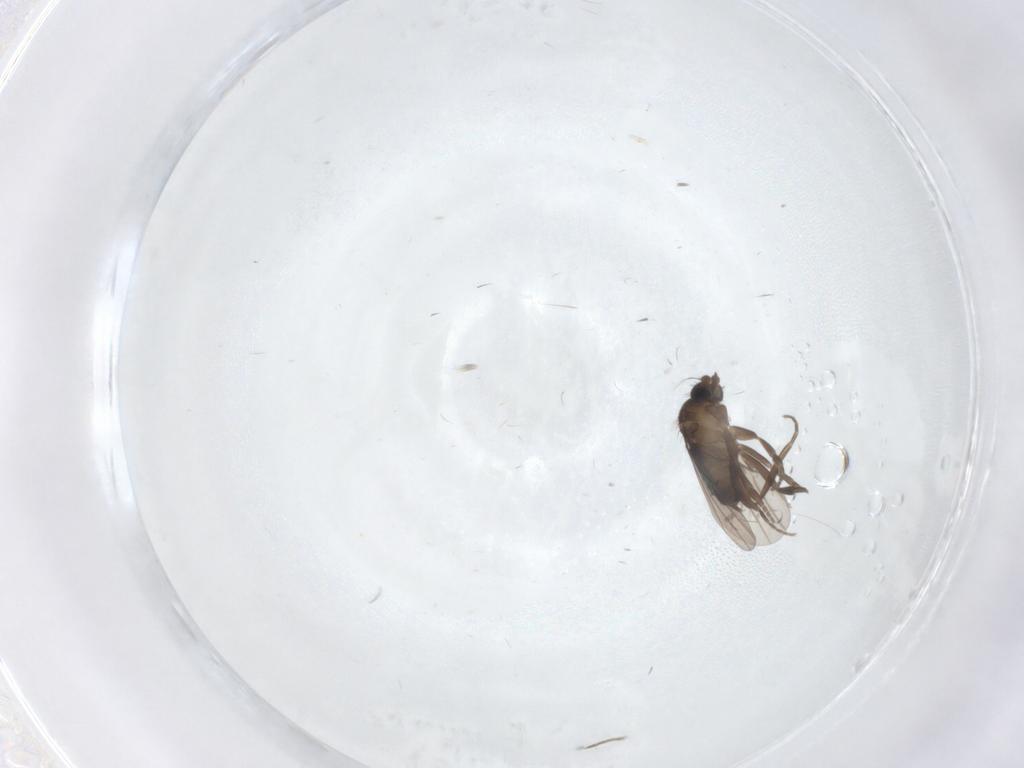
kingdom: Animalia
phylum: Arthropoda
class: Insecta
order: Diptera
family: Phoridae
